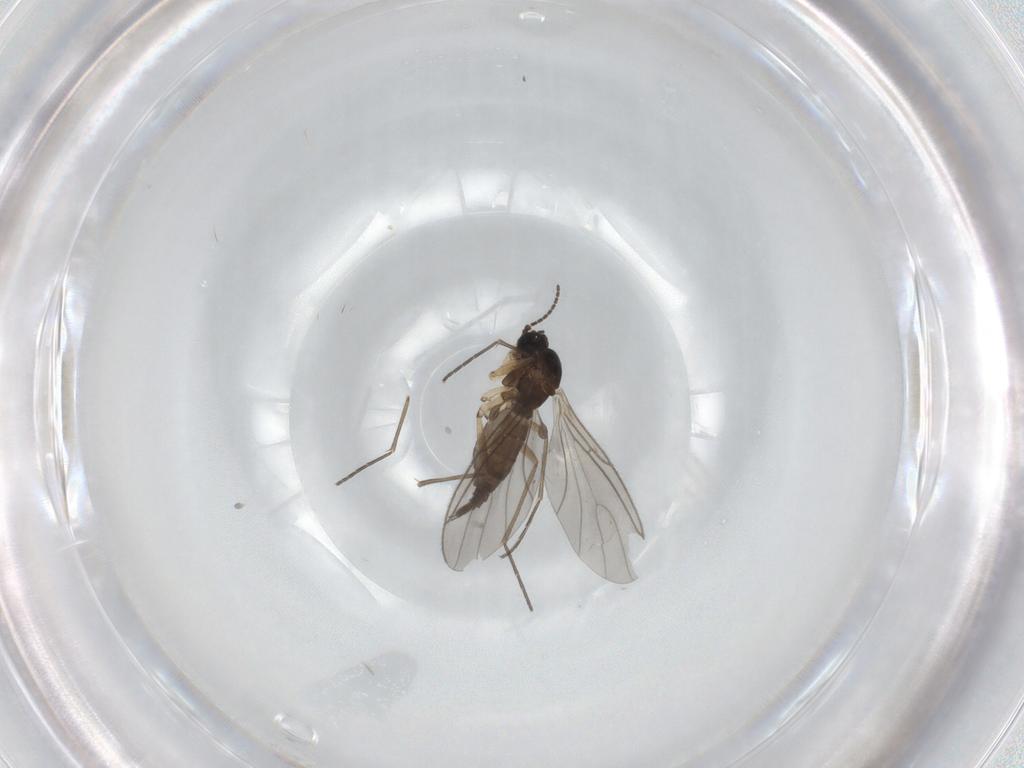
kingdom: Animalia
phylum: Arthropoda
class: Insecta
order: Diptera
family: Sciaridae
